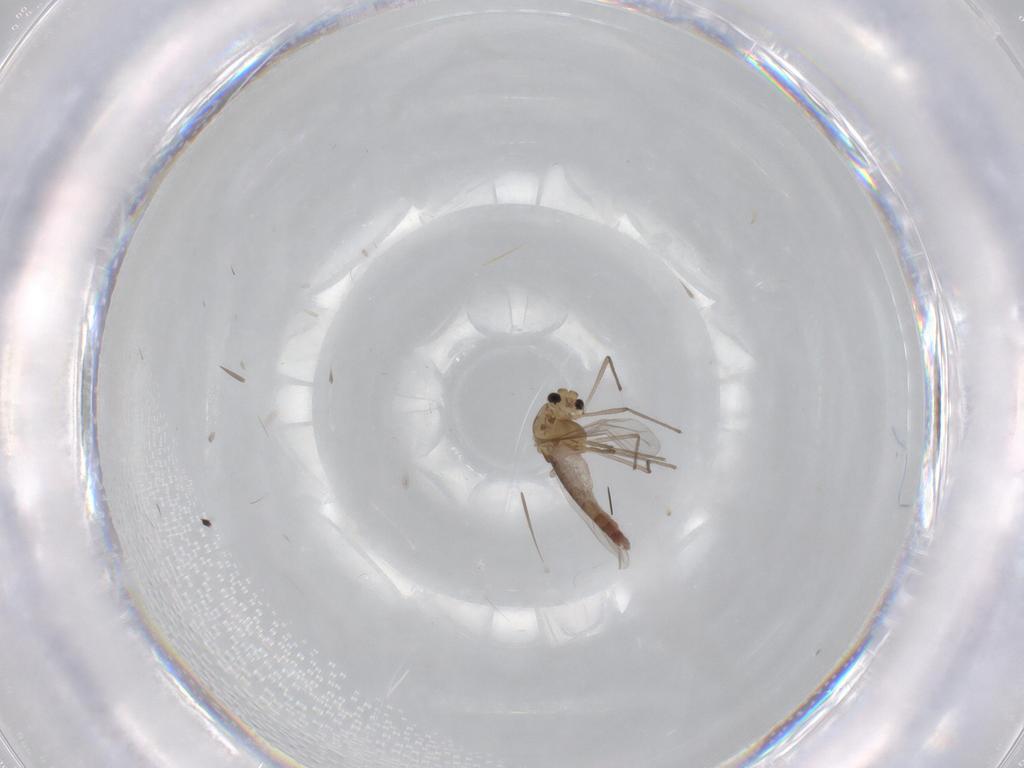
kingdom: Animalia
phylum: Arthropoda
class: Insecta
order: Diptera
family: Chironomidae
